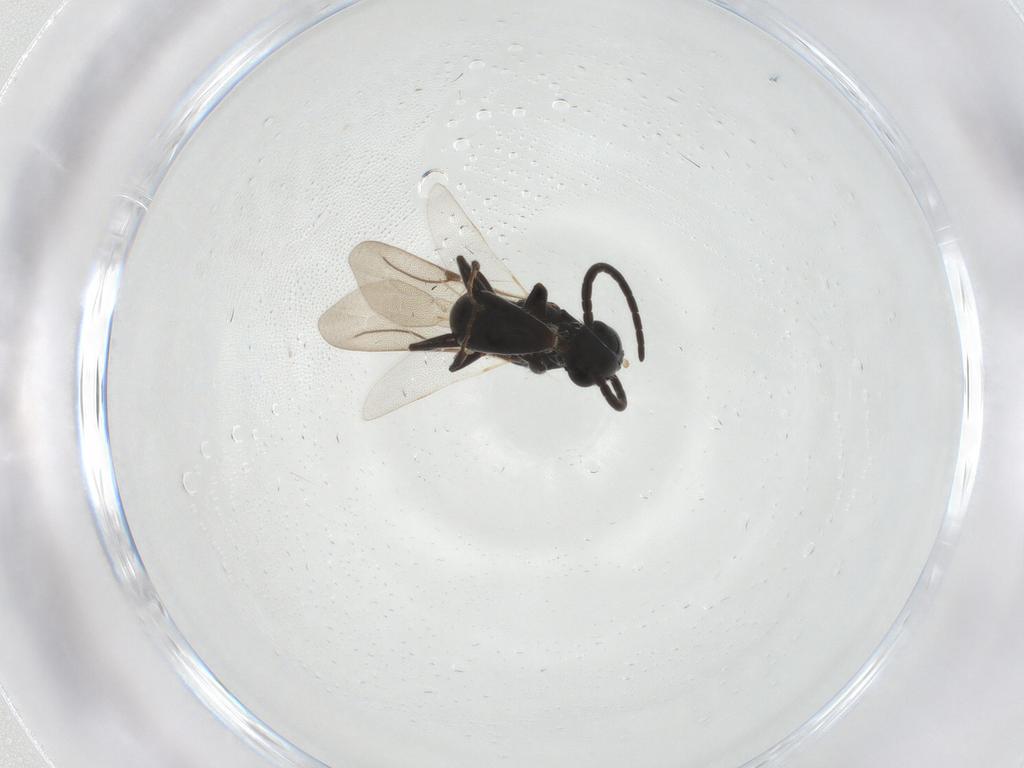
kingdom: Animalia
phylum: Arthropoda
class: Insecta
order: Hymenoptera
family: Bethylidae
